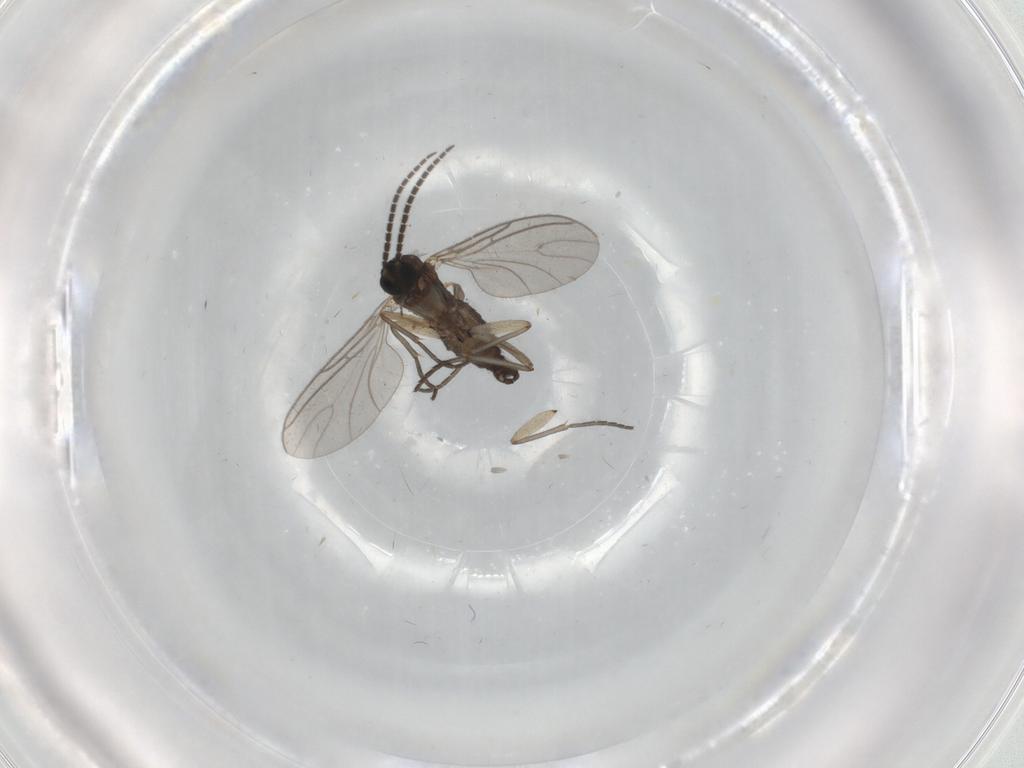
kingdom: Animalia
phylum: Arthropoda
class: Insecta
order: Diptera
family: Sciaridae
